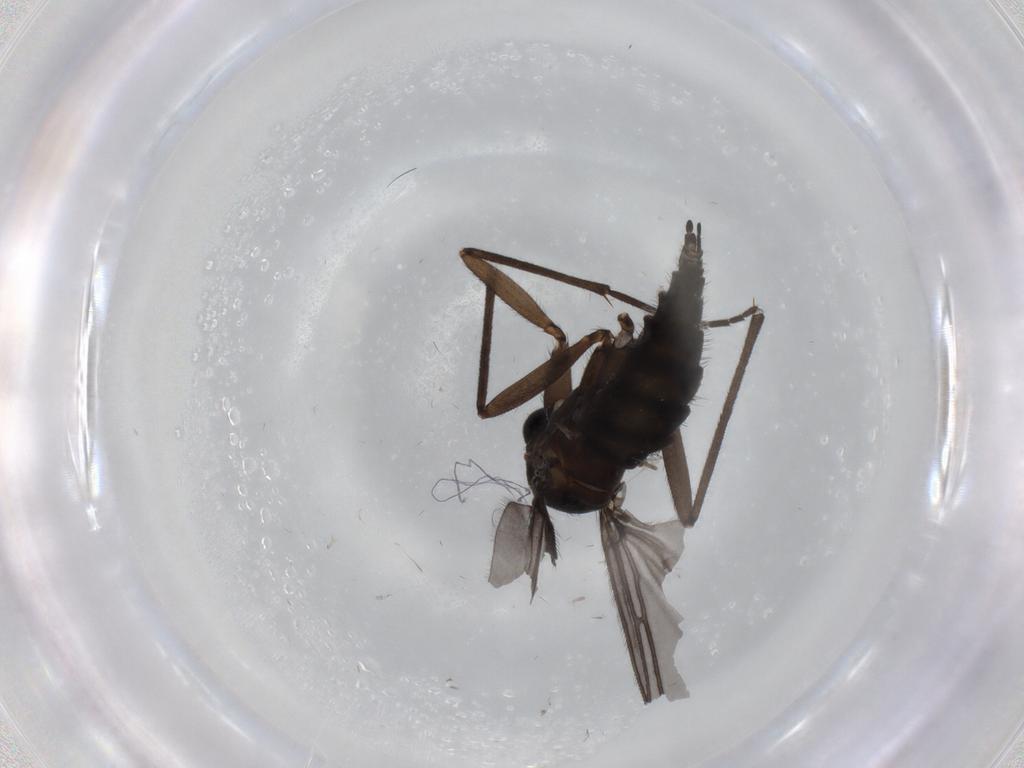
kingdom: Animalia
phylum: Arthropoda
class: Insecta
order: Diptera
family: Sciaridae
